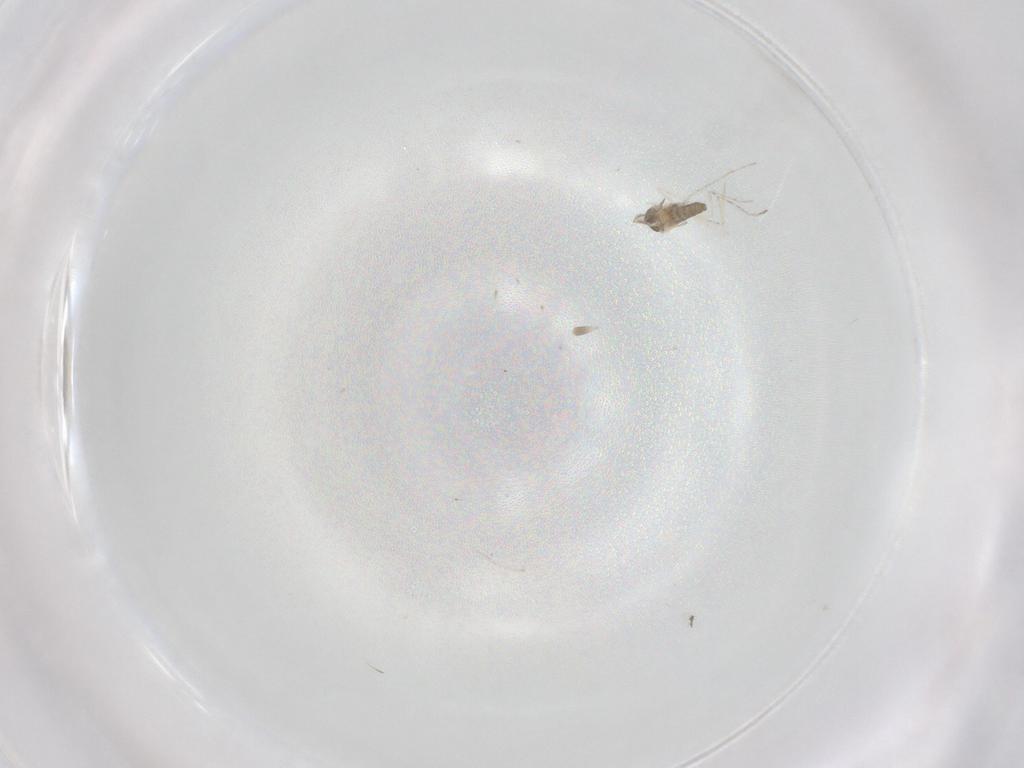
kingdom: Animalia
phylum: Arthropoda
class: Insecta
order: Diptera
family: Cecidomyiidae
